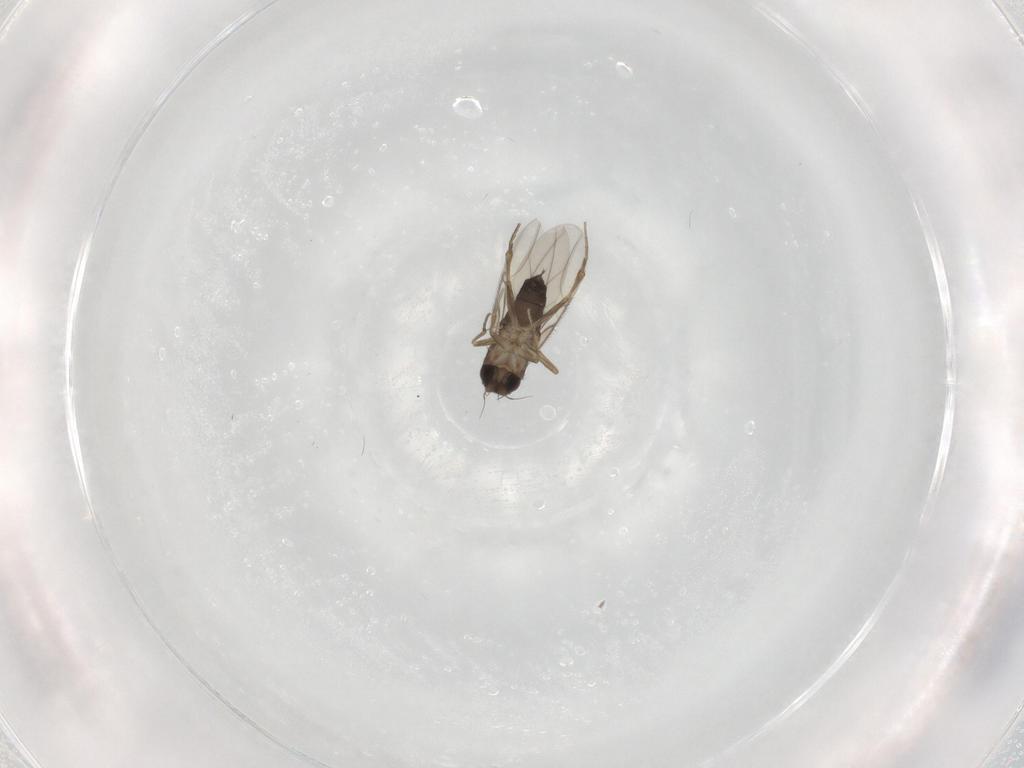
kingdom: Animalia
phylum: Arthropoda
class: Insecta
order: Diptera
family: Phoridae
